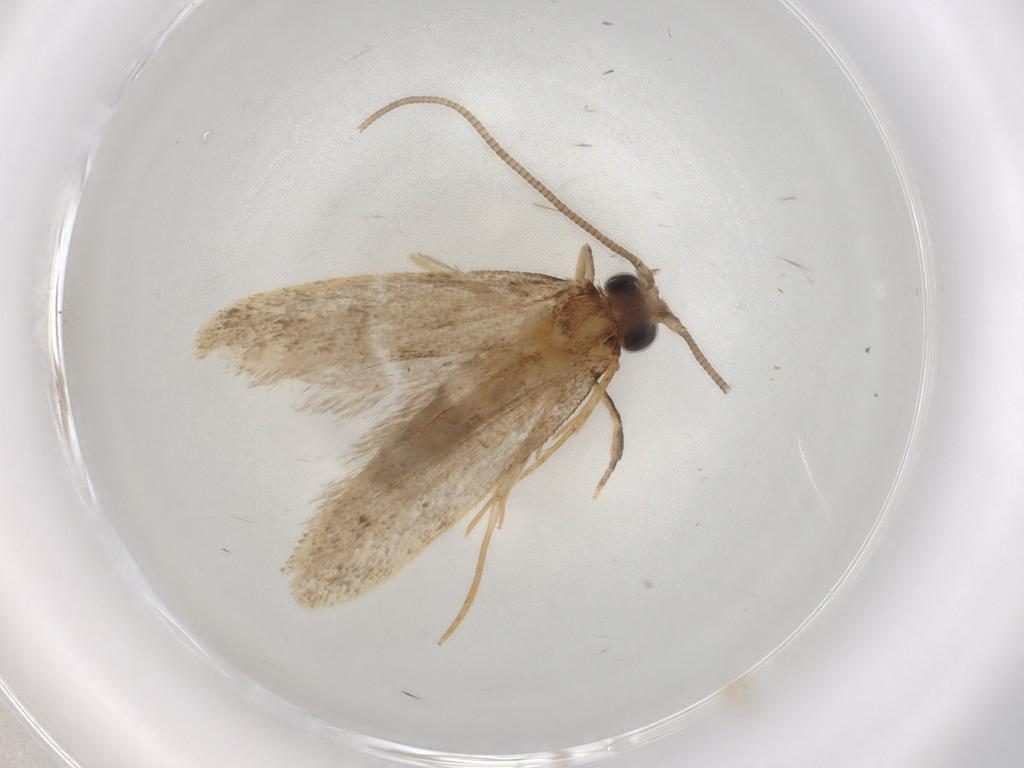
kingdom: Animalia
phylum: Arthropoda
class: Insecta
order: Lepidoptera
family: Nepticulidae
